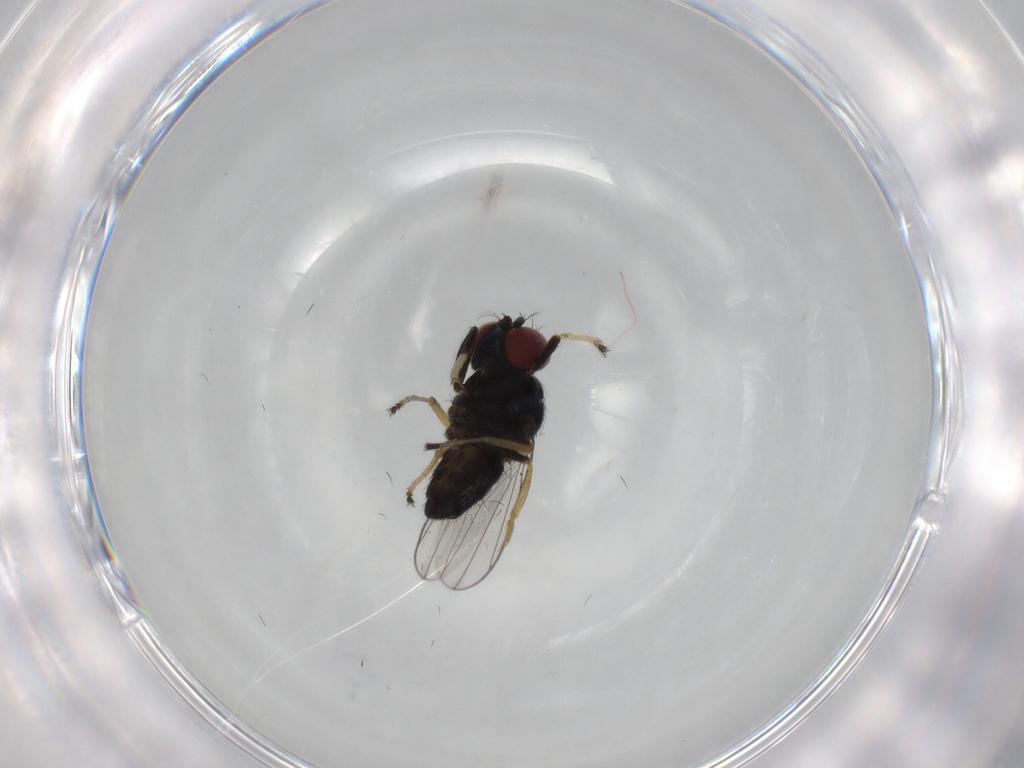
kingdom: Animalia
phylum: Arthropoda
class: Insecta
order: Diptera
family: Ephydridae
